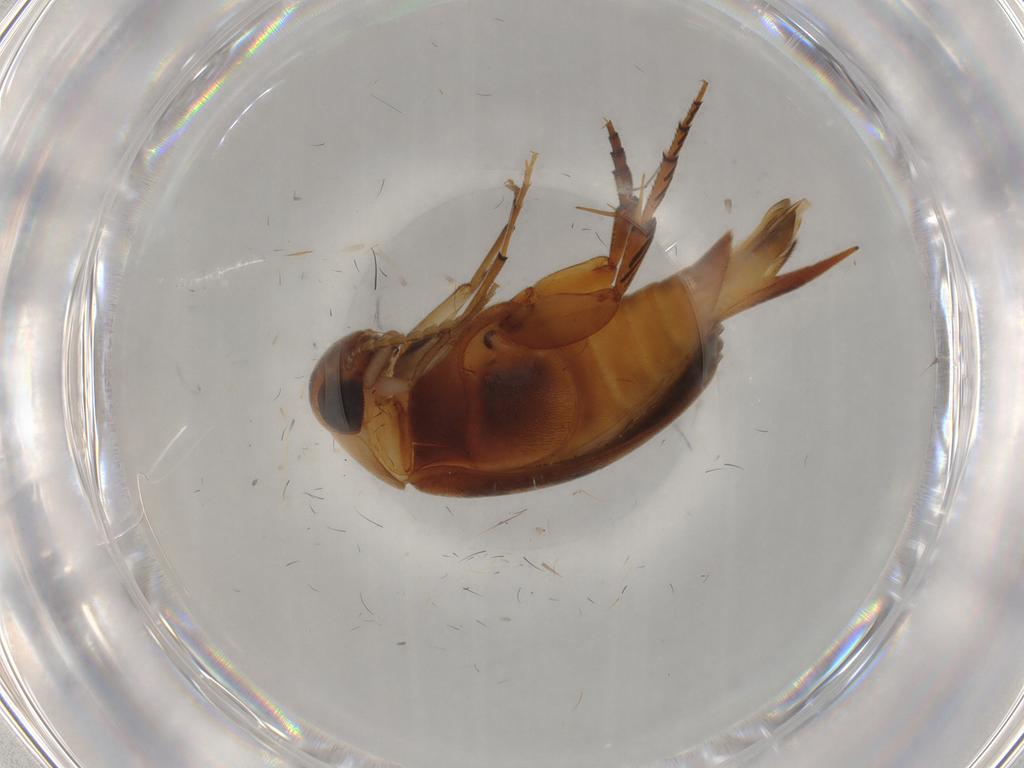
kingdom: Animalia
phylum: Arthropoda
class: Insecta
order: Coleoptera
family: Mordellidae
